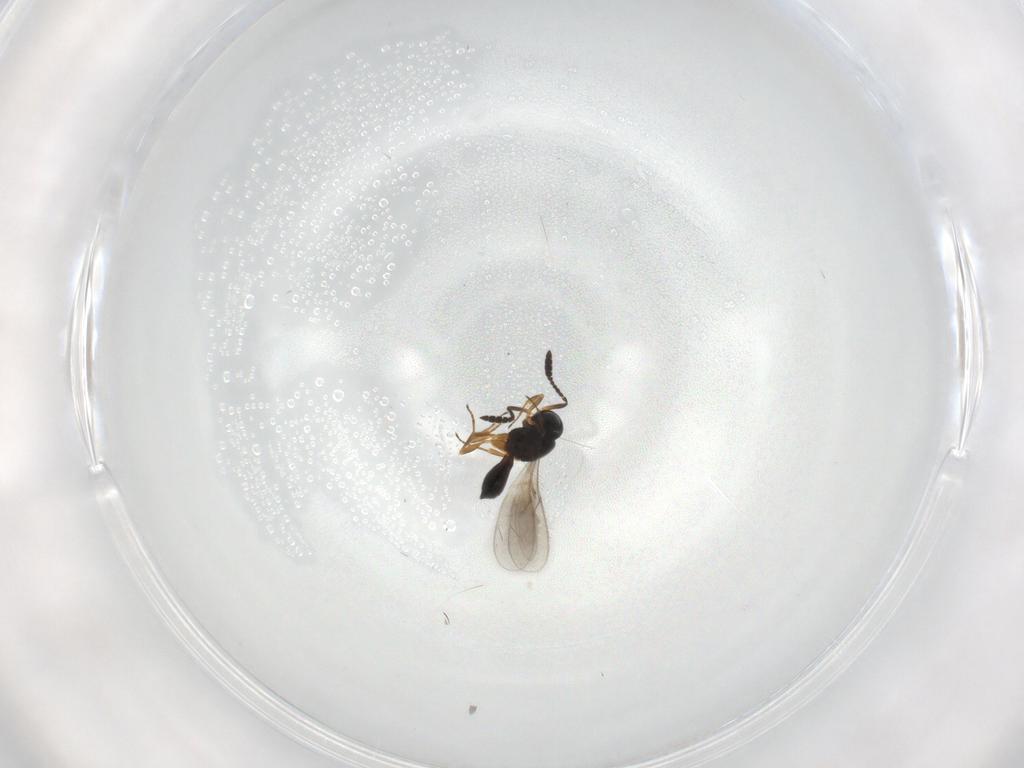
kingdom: Animalia
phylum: Arthropoda
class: Insecta
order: Hymenoptera
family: Scelionidae
